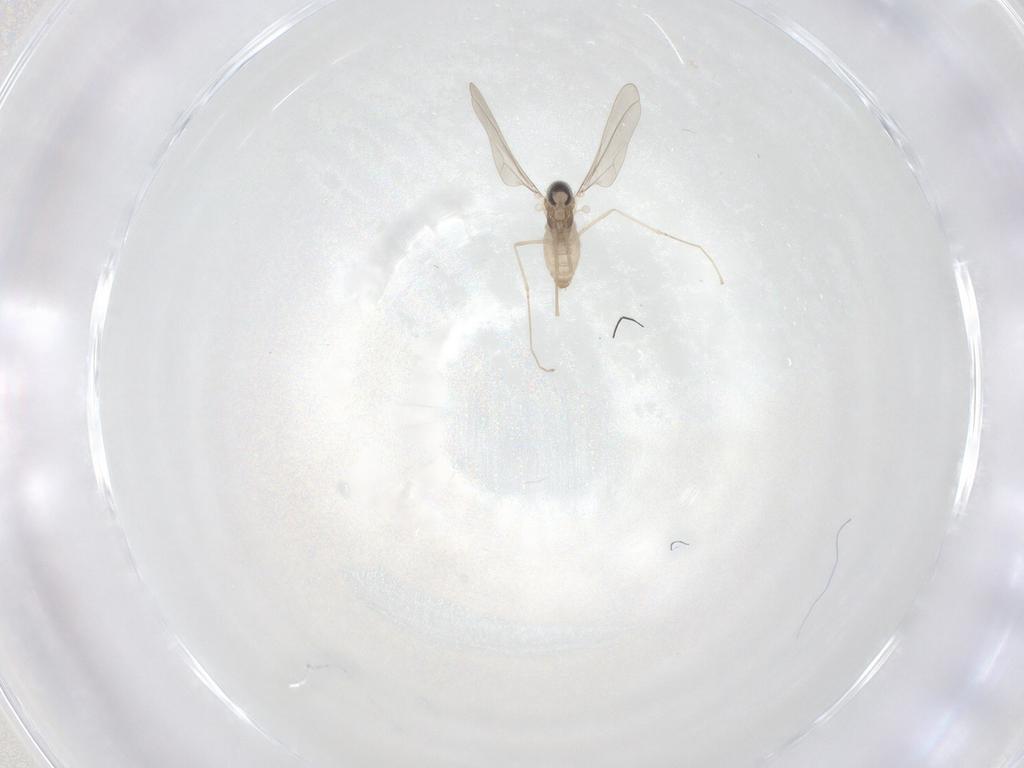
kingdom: Animalia
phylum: Arthropoda
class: Insecta
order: Diptera
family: Cecidomyiidae
